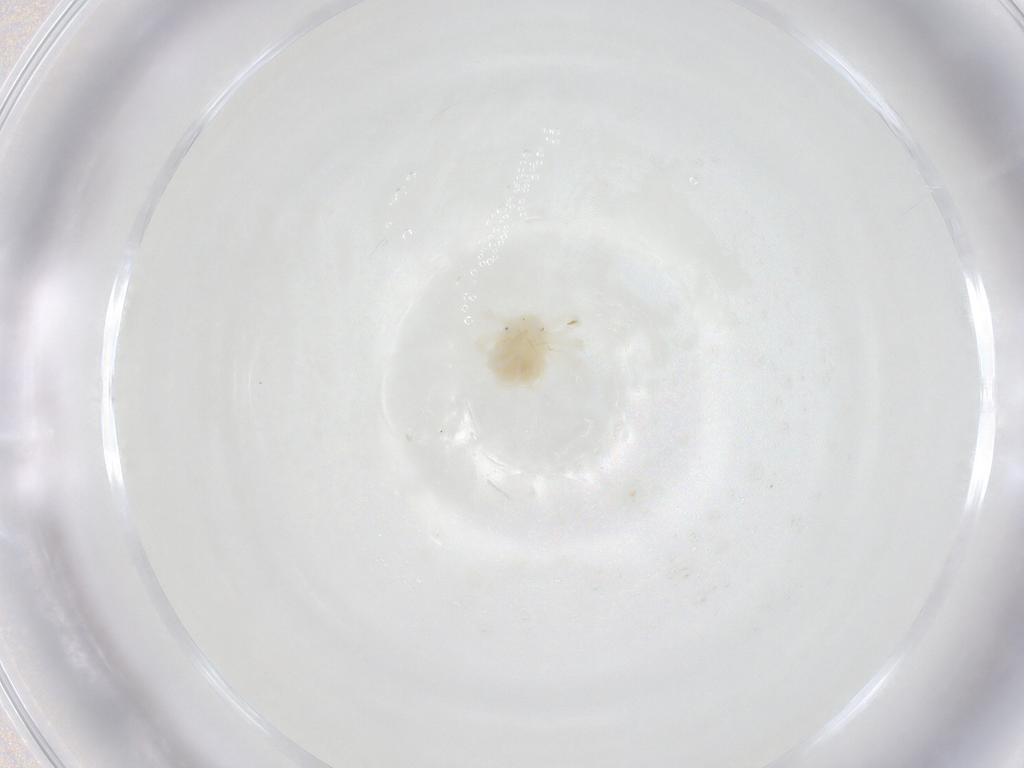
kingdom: Animalia
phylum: Arthropoda
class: Arachnida
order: Trombidiformes
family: Anystidae
